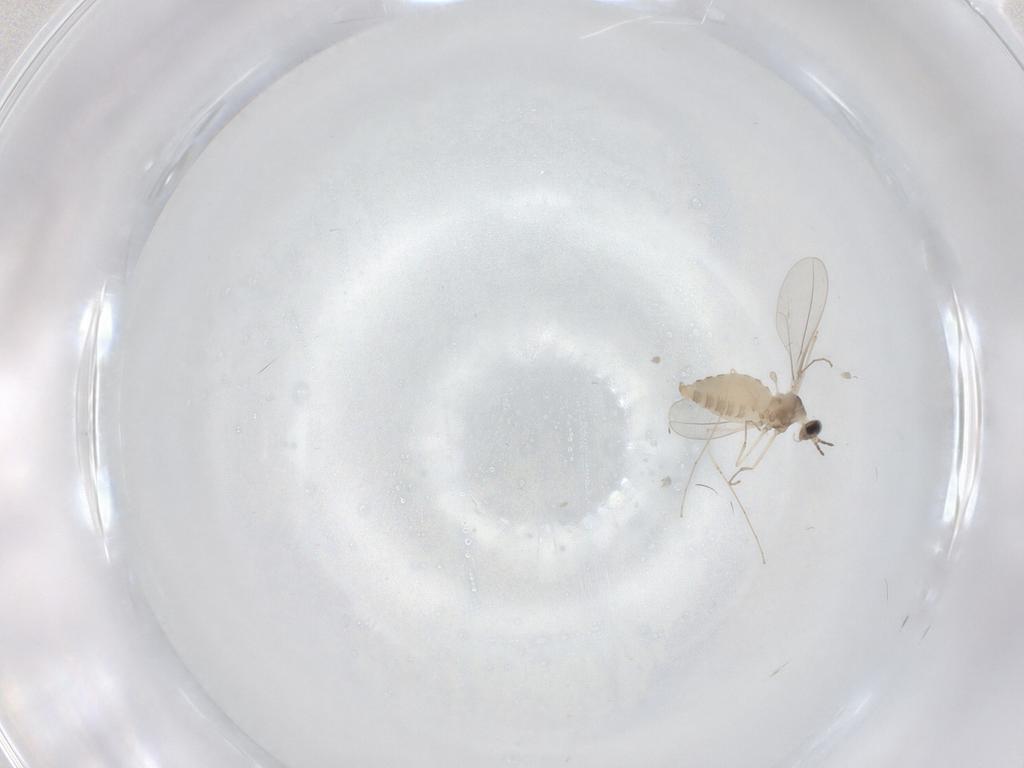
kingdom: Animalia
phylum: Arthropoda
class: Insecta
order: Diptera
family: Cecidomyiidae
